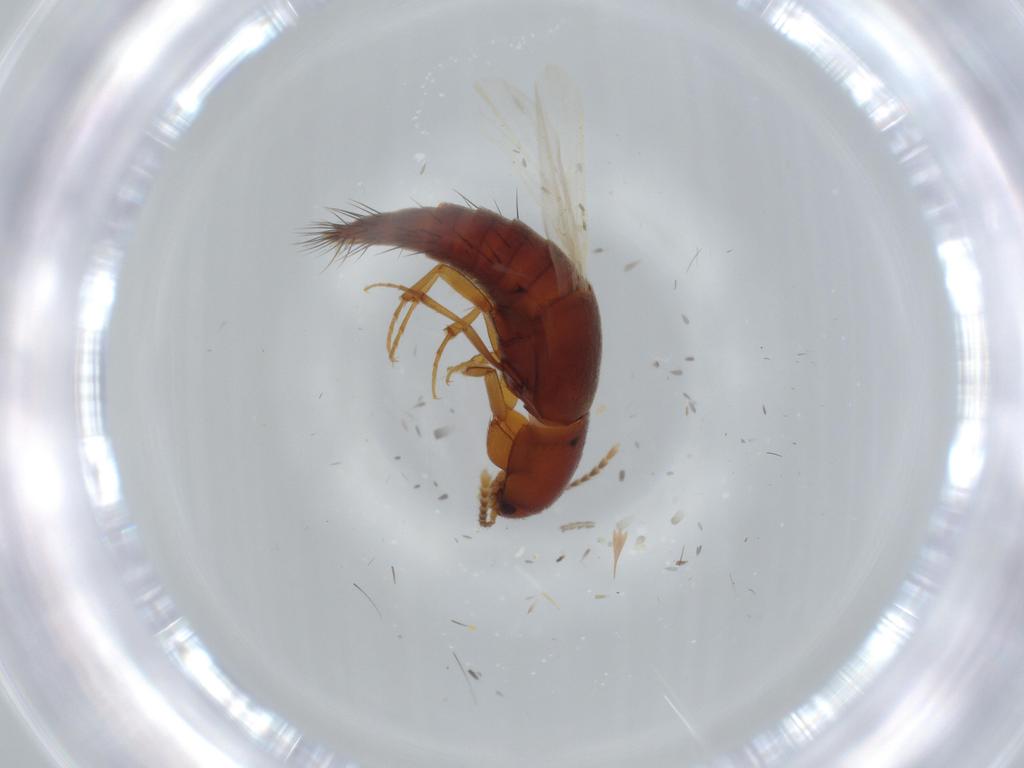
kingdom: Animalia
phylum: Arthropoda
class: Insecta
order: Coleoptera
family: Staphylinidae
